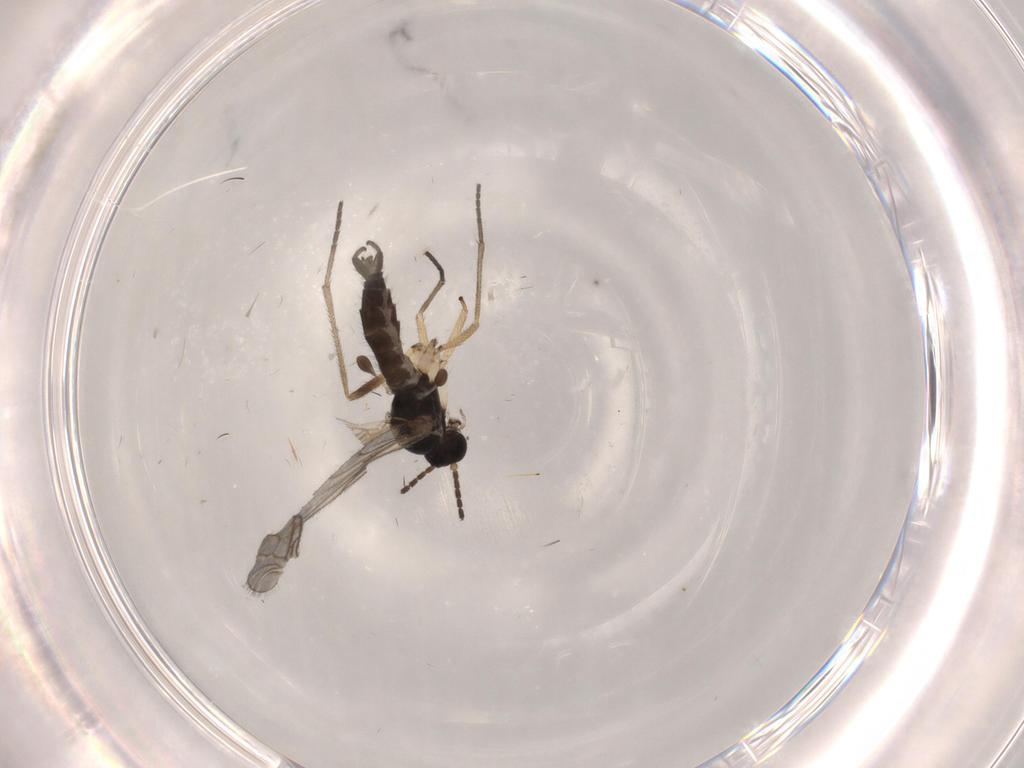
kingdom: Animalia
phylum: Arthropoda
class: Insecta
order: Diptera
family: Sciaridae
